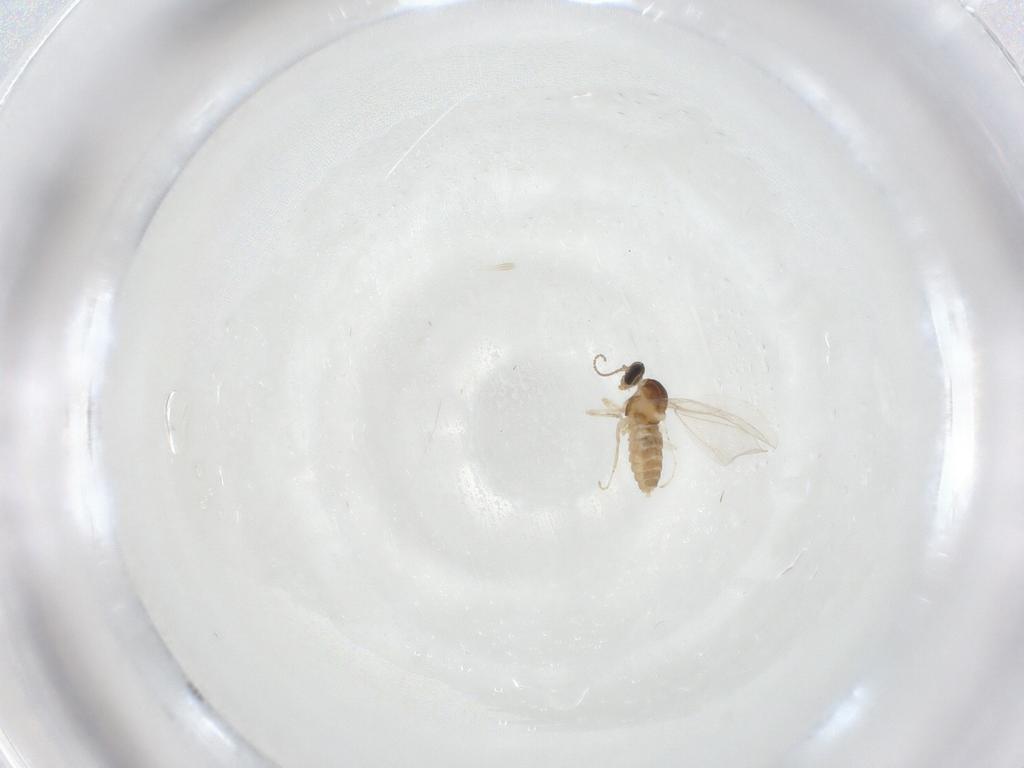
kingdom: Animalia
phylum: Arthropoda
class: Insecta
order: Diptera
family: Cecidomyiidae
